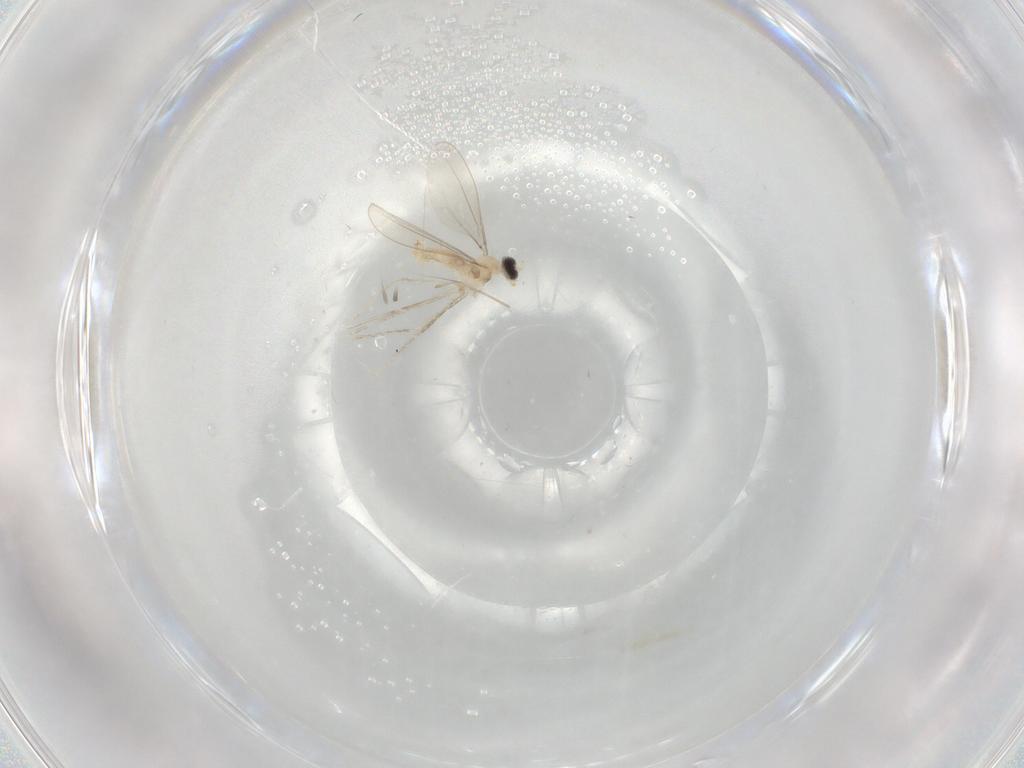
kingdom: Animalia
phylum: Arthropoda
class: Insecta
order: Diptera
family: Cecidomyiidae
